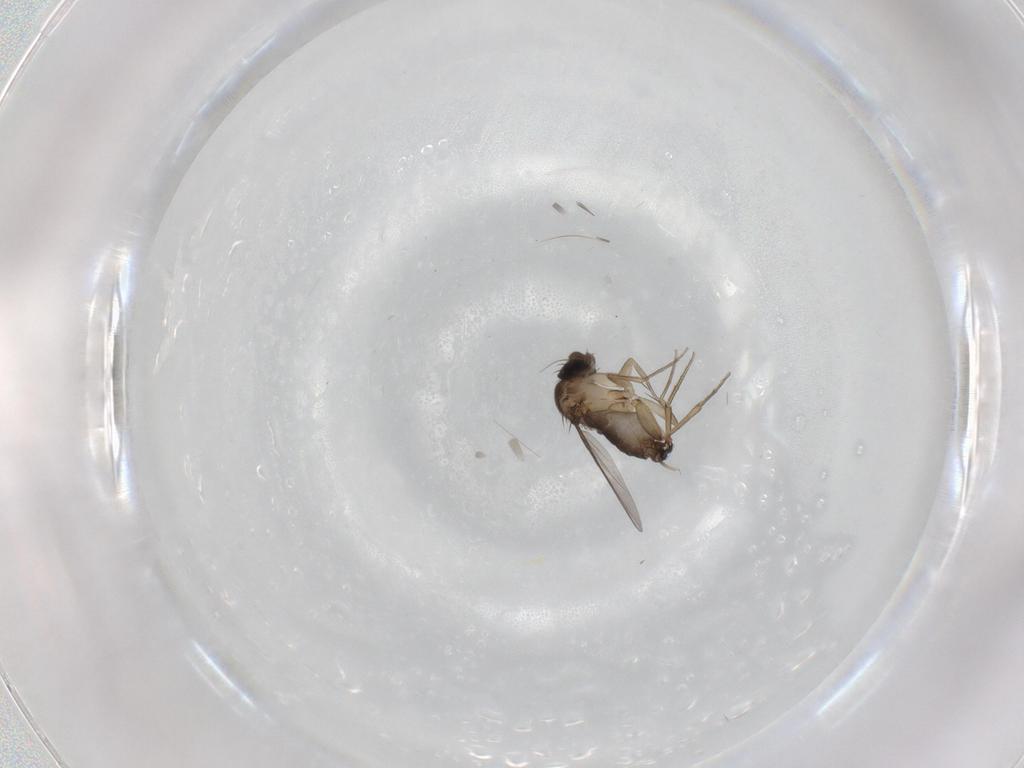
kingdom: Animalia
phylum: Arthropoda
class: Insecta
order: Diptera
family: Phoridae
